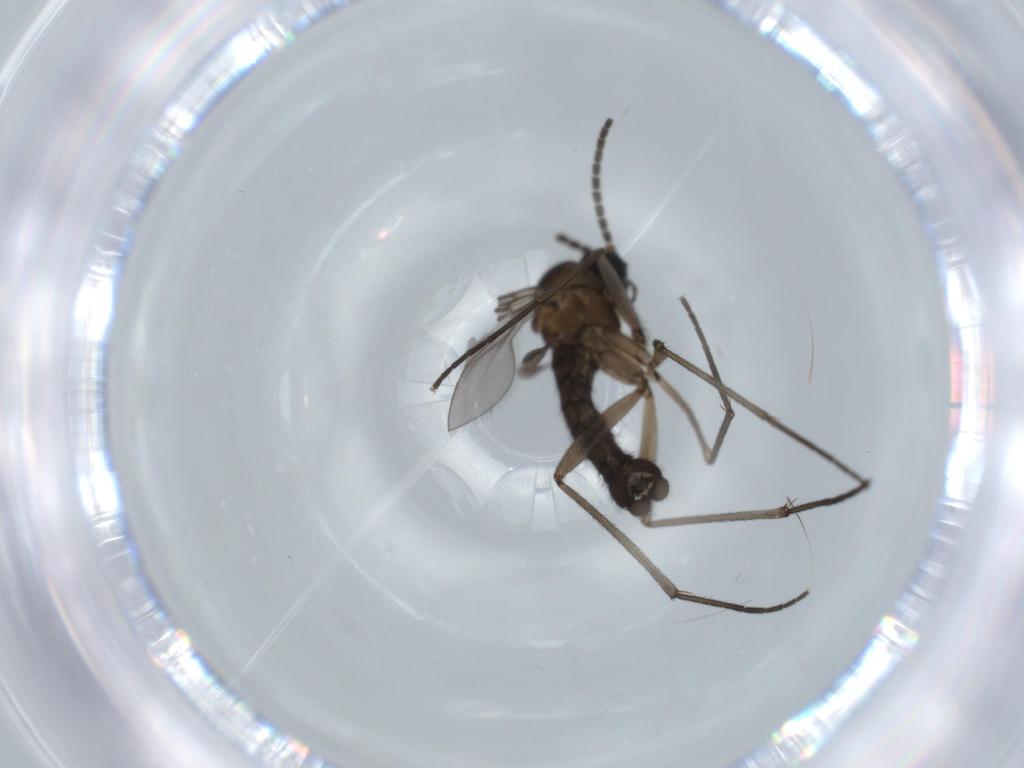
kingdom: Animalia
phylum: Arthropoda
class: Insecta
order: Diptera
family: Sciaridae
